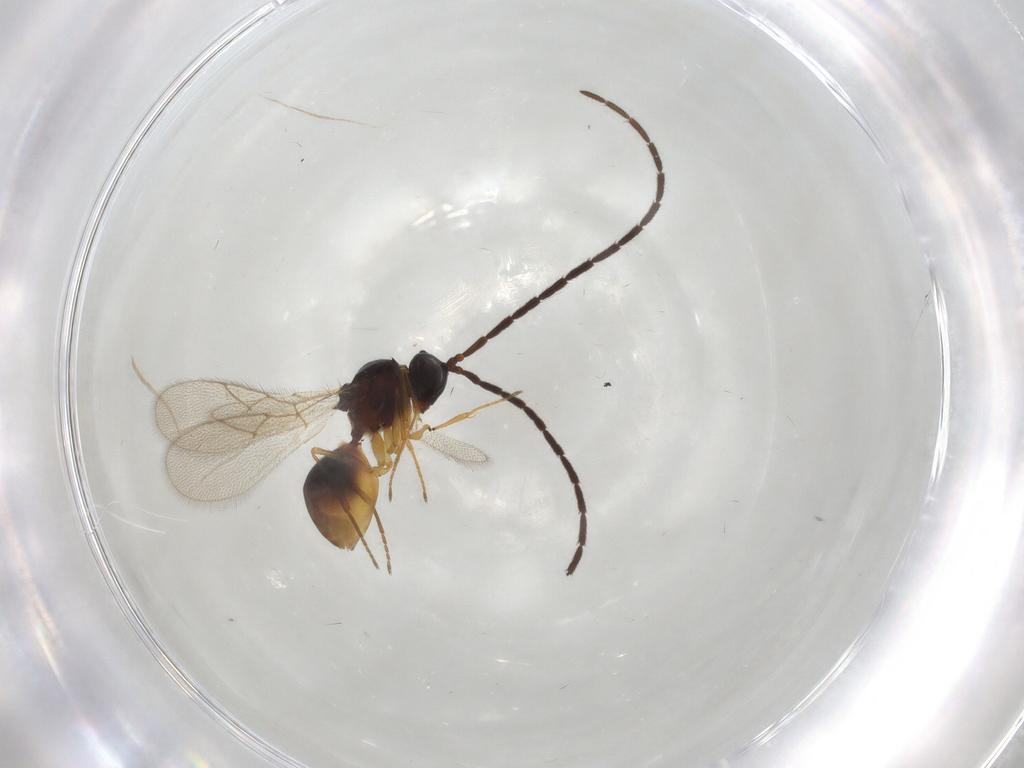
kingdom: Animalia
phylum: Arthropoda
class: Insecta
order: Hymenoptera
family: Figitidae
